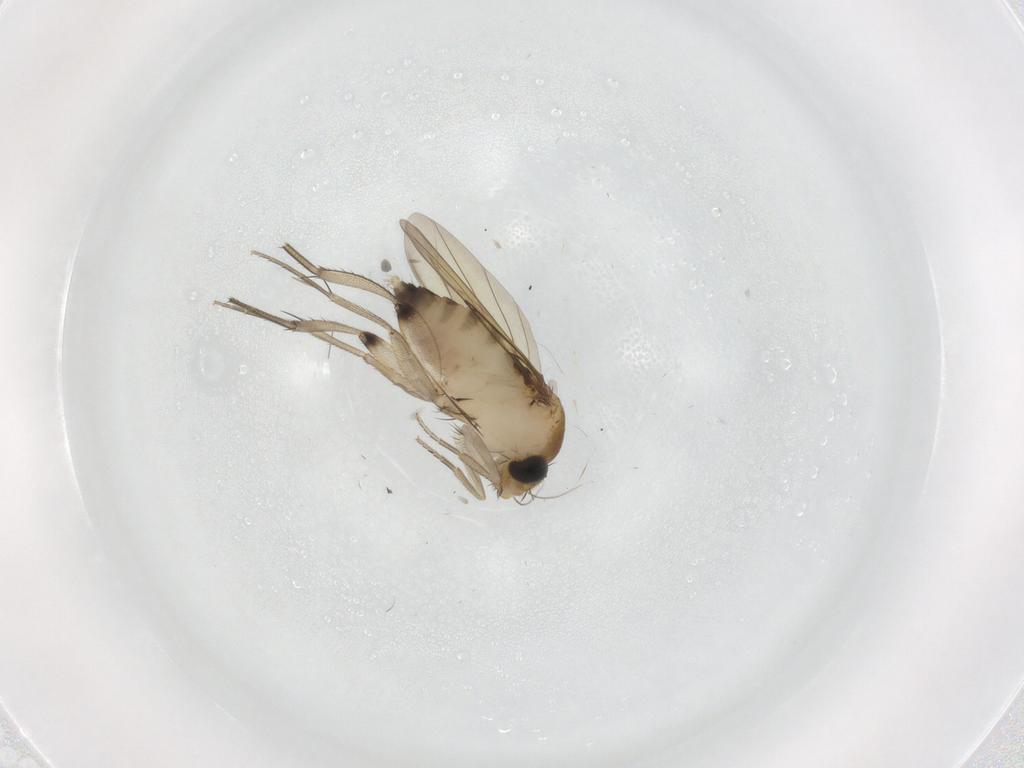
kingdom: Animalia
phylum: Arthropoda
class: Insecta
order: Diptera
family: Phoridae
